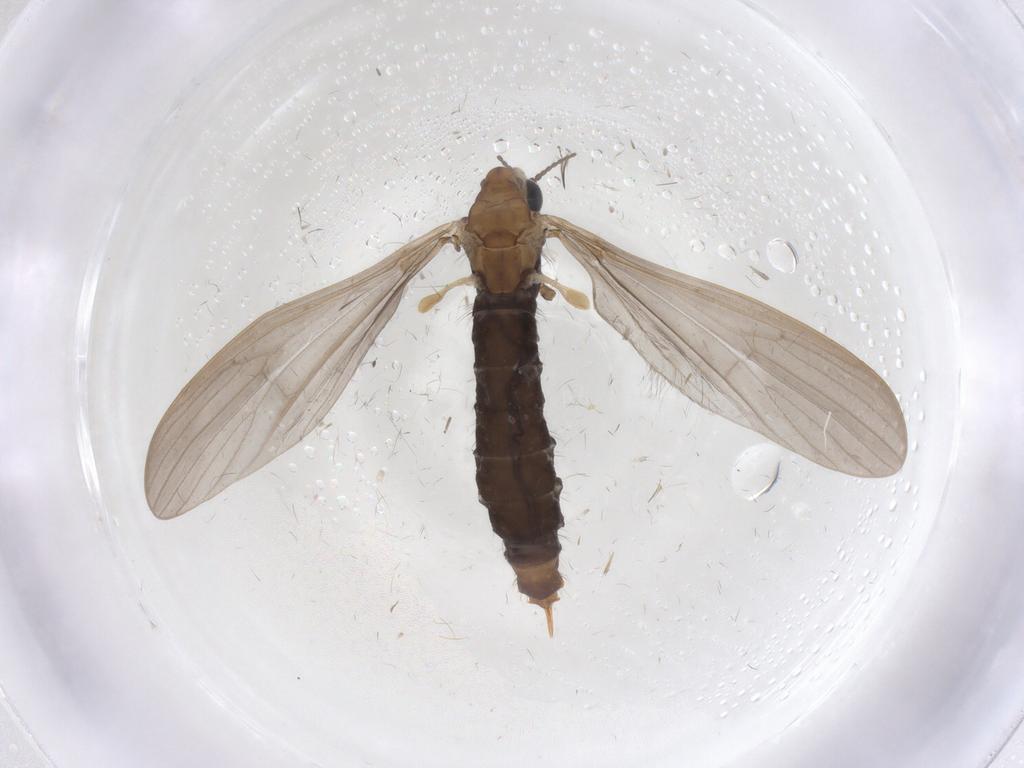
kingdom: Animalia
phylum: Arthropoda
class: Insecta
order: Diptera
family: Limoniidae
